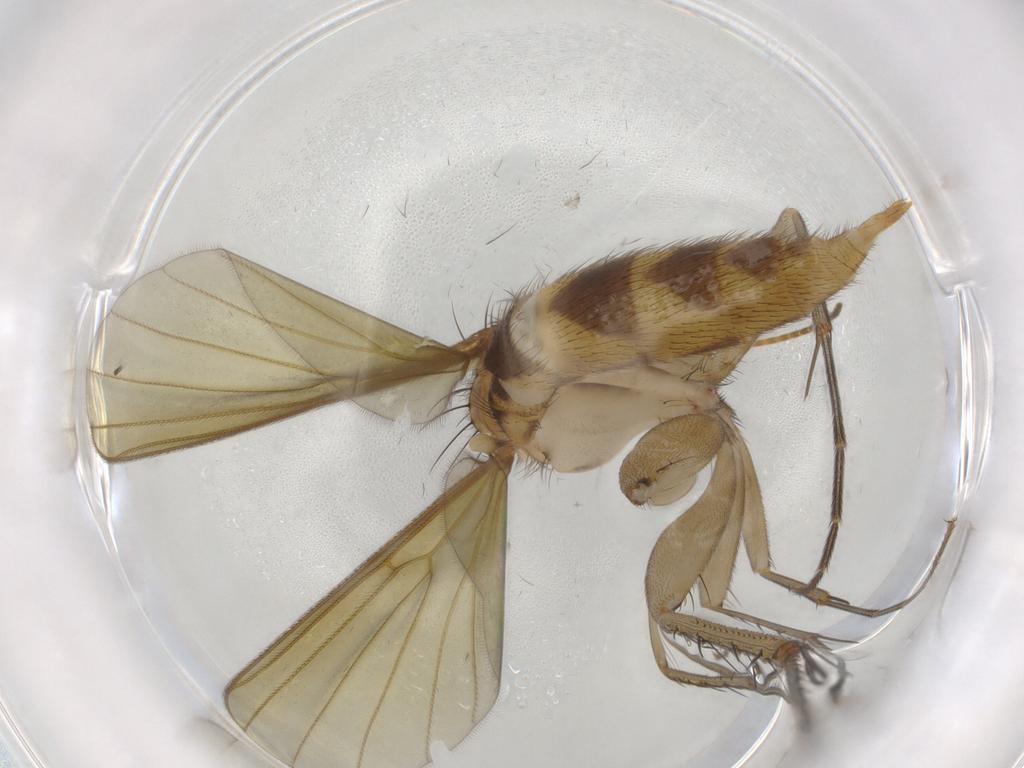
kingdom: Animalia
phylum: Arthropoda
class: Insecta
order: Diptera
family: Mycetophilidae
